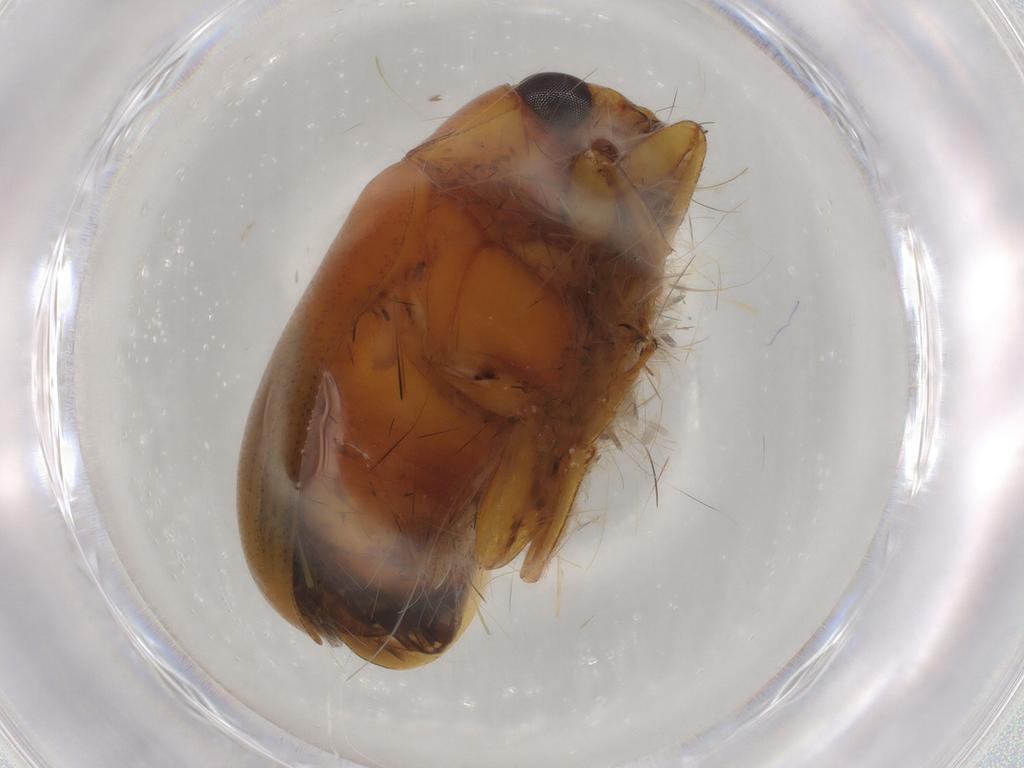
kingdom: Animalia
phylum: Arthropoda
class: Insecta
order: Coleoptera
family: Chrysomelidae
